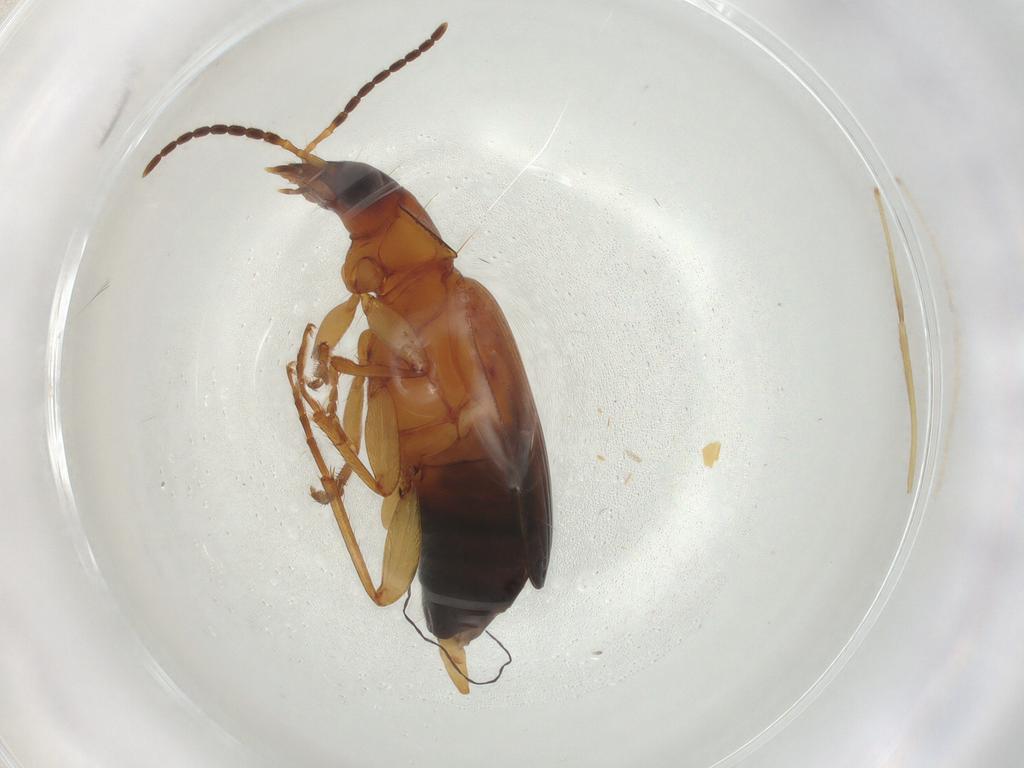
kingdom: Animalia
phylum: Arthropoda
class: Insecta
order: Coleoptera
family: Carabidae
